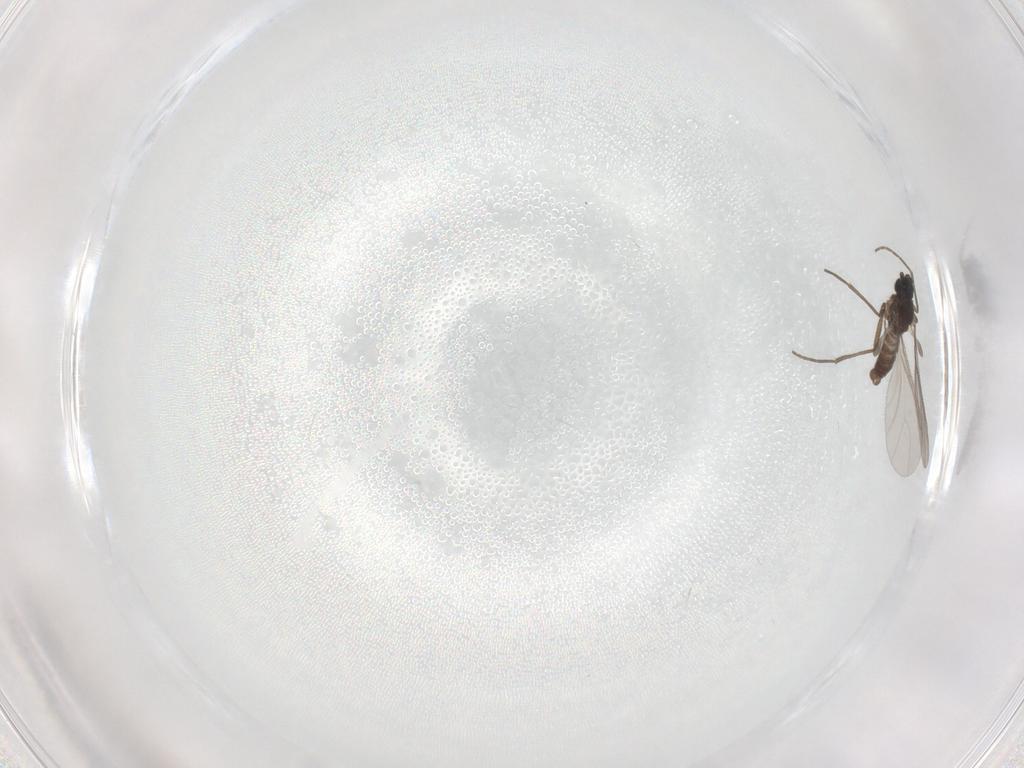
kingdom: Animalia
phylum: Arthropoda
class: Insecta
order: Diptera
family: Sciaridae
